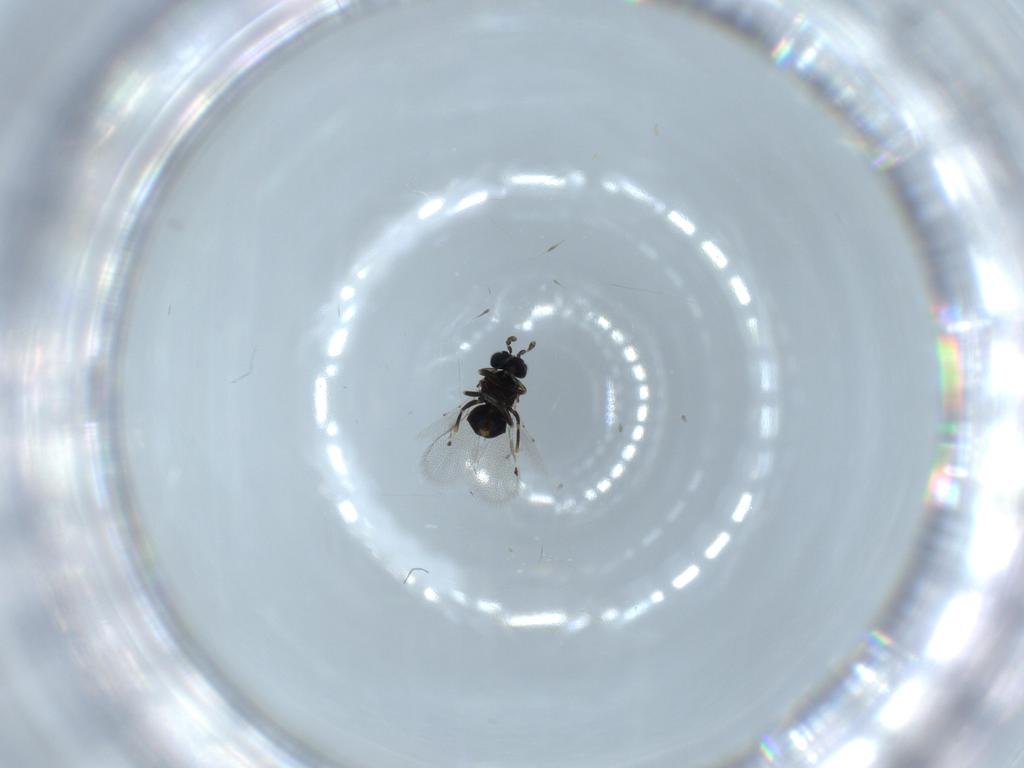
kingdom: Animalia
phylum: Arthropoda
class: Insecta
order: Hymenoptera
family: Eulophidae
